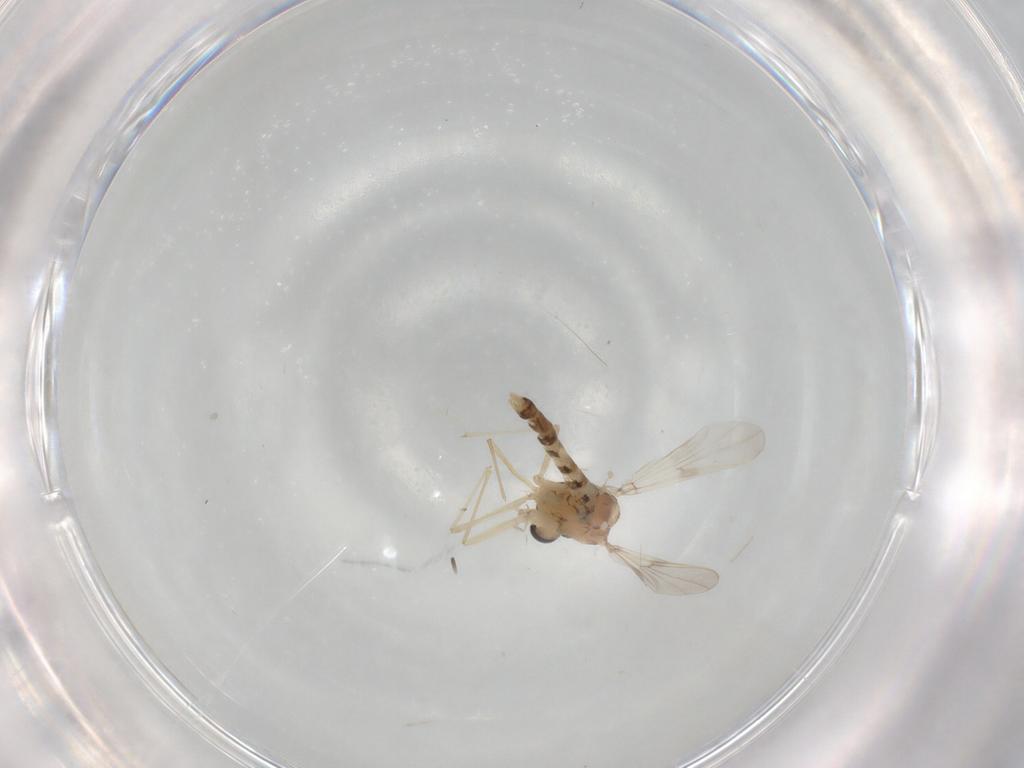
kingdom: Animalia
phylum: Arthropoda
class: Insecta
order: Diptera
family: Chironomidae
